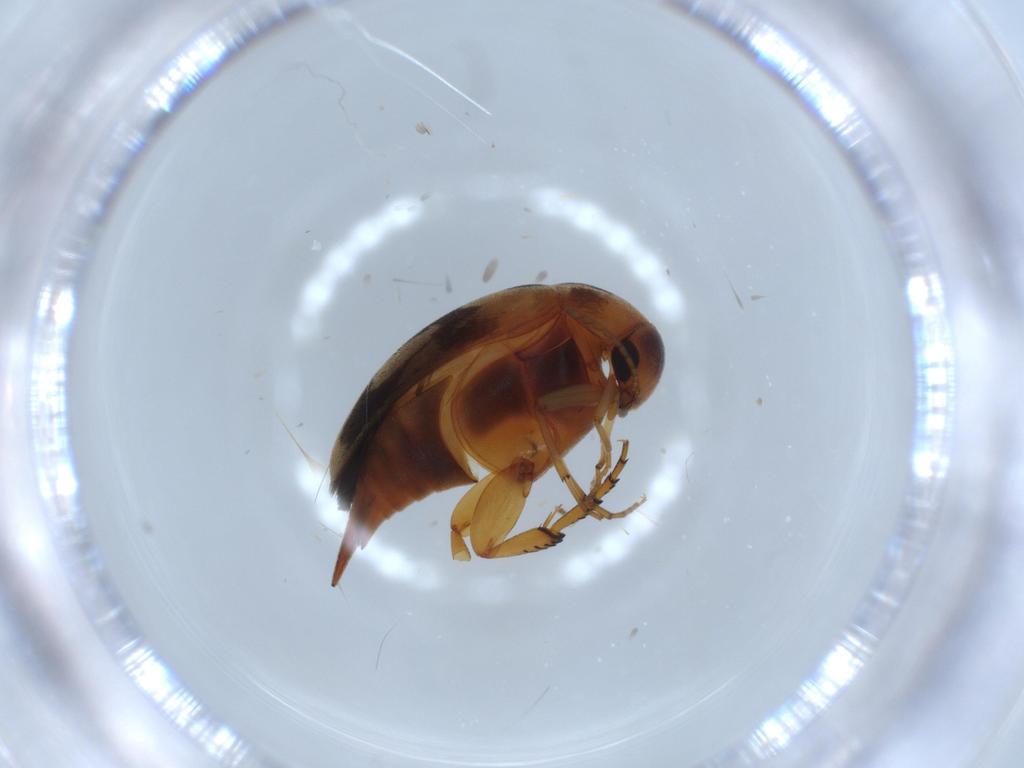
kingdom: Animalia
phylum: Arthropoda
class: Insecta
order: Coleoptera
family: Mordellidae
